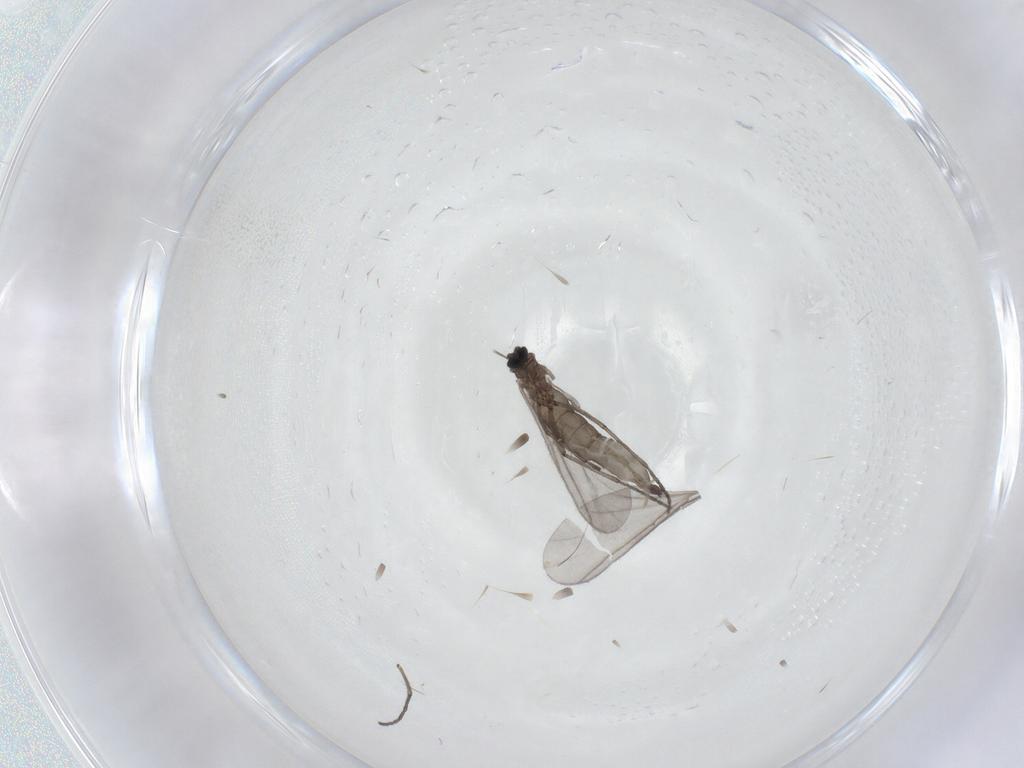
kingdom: Animalia
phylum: Arthropoda
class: Insecta
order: Diptera
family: Sciaridae
